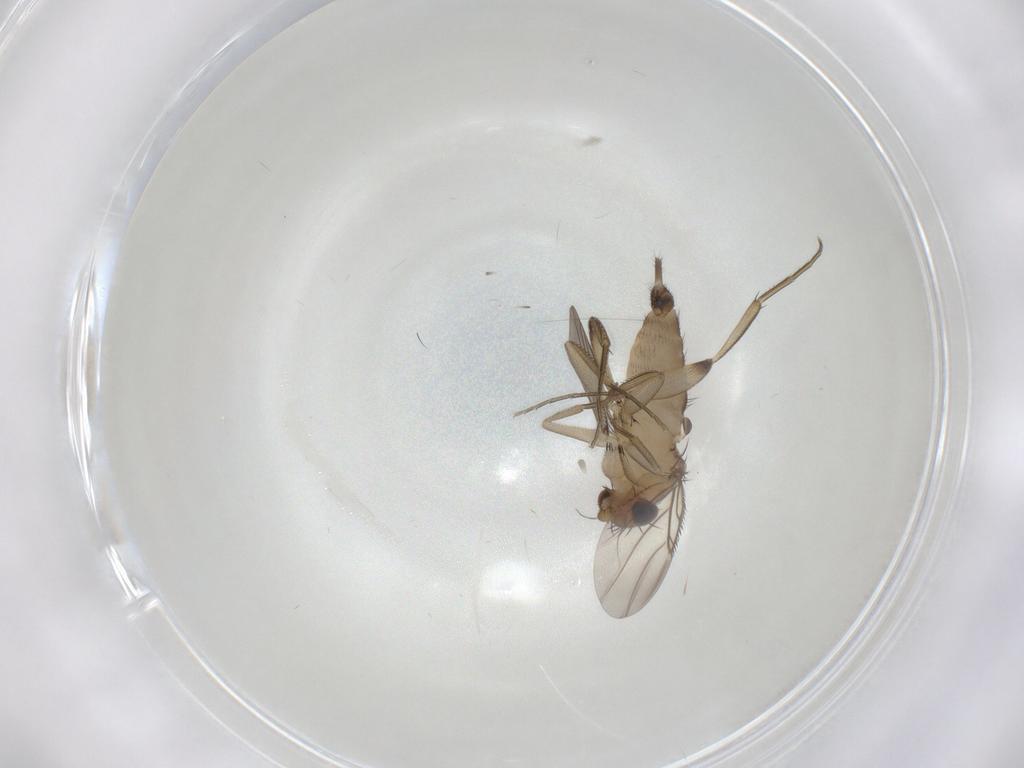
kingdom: Animalia
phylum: Arthropoda
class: Insecta
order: Diptera
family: Phoridae
